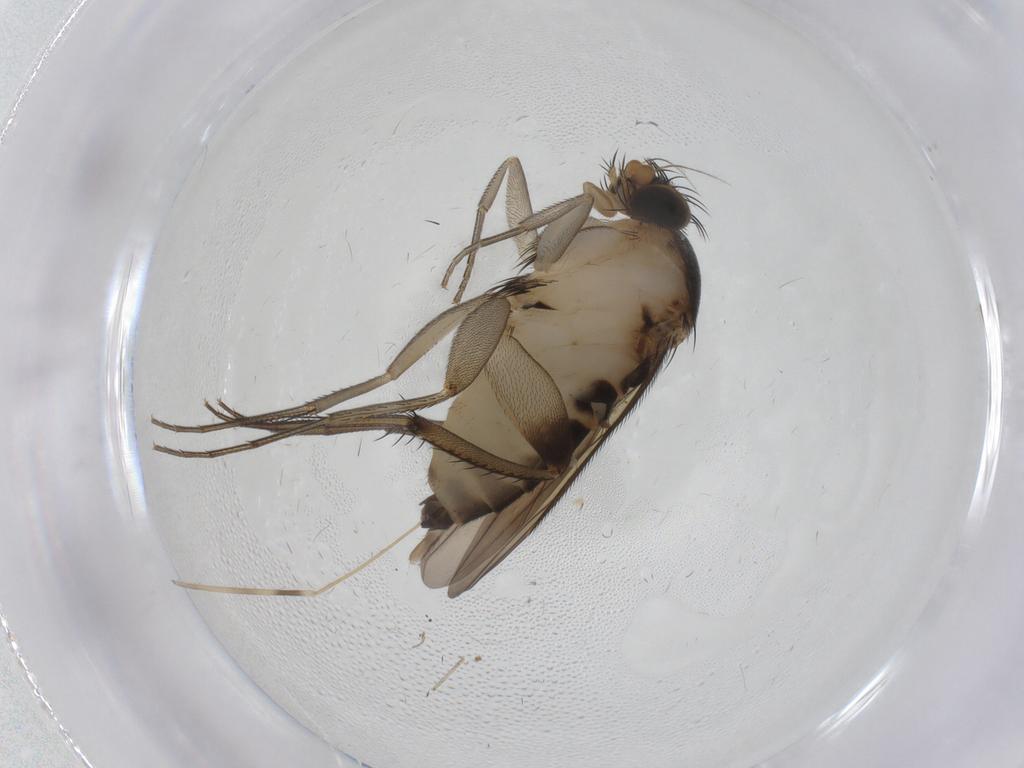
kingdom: Animalia
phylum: Arthropoda
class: Insecta
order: Diptera
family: Phoridae
